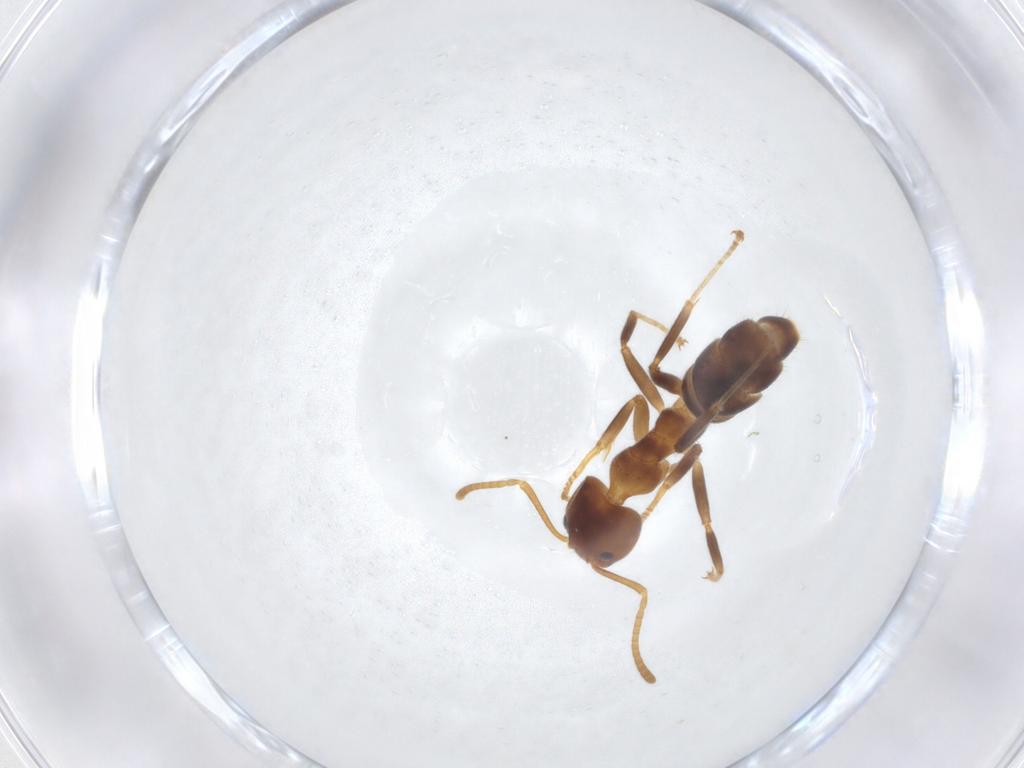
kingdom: Animalia
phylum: Arthropoda
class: Insecta
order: Hymenoptera
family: Formicidae
